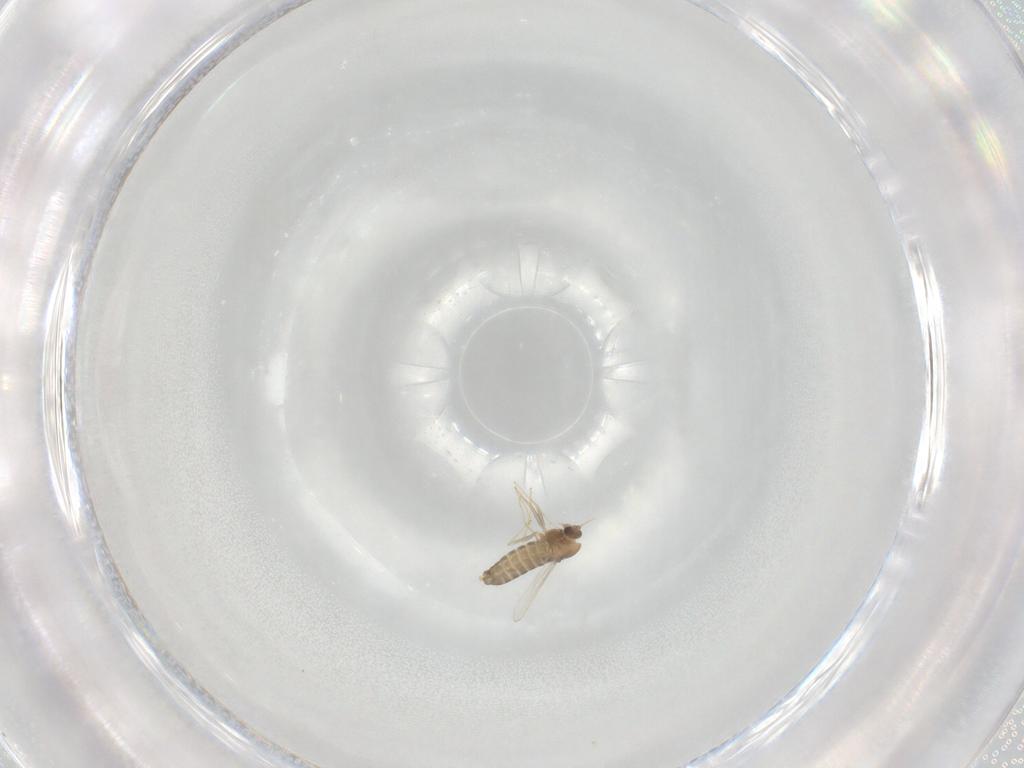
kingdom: Animalia
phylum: Arthropoda
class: Insecta
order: Diptera
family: Chironomidae
